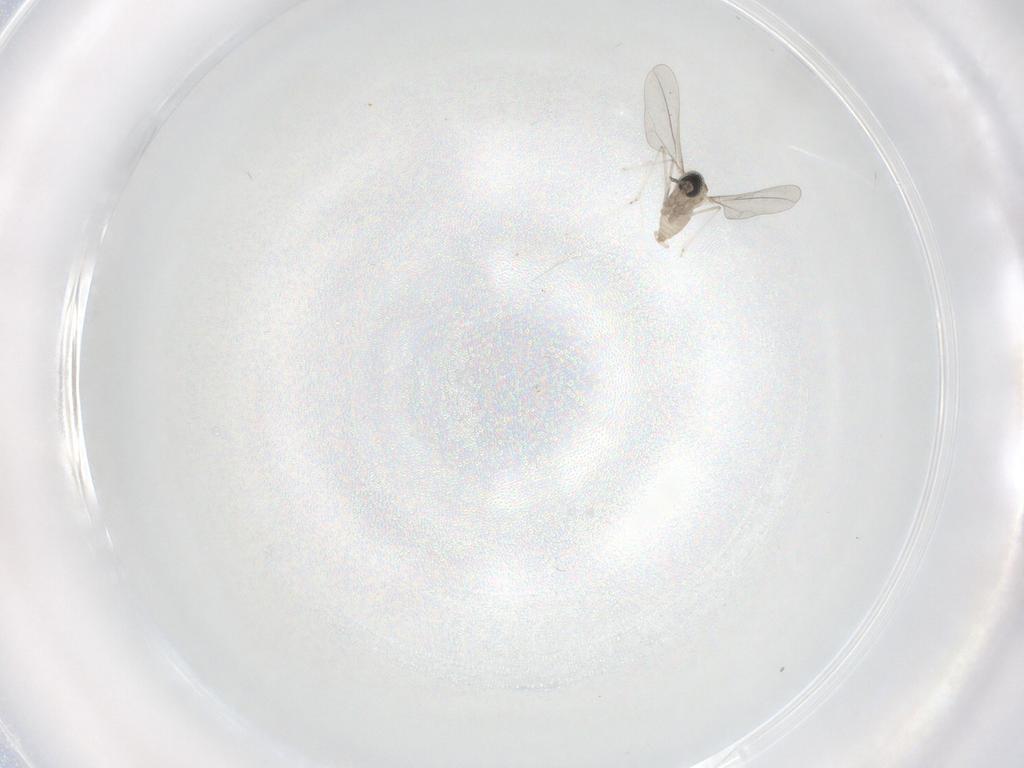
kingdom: Animalia
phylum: Arthropoda
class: Insecta
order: Diptera
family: Cecidomyiidae
